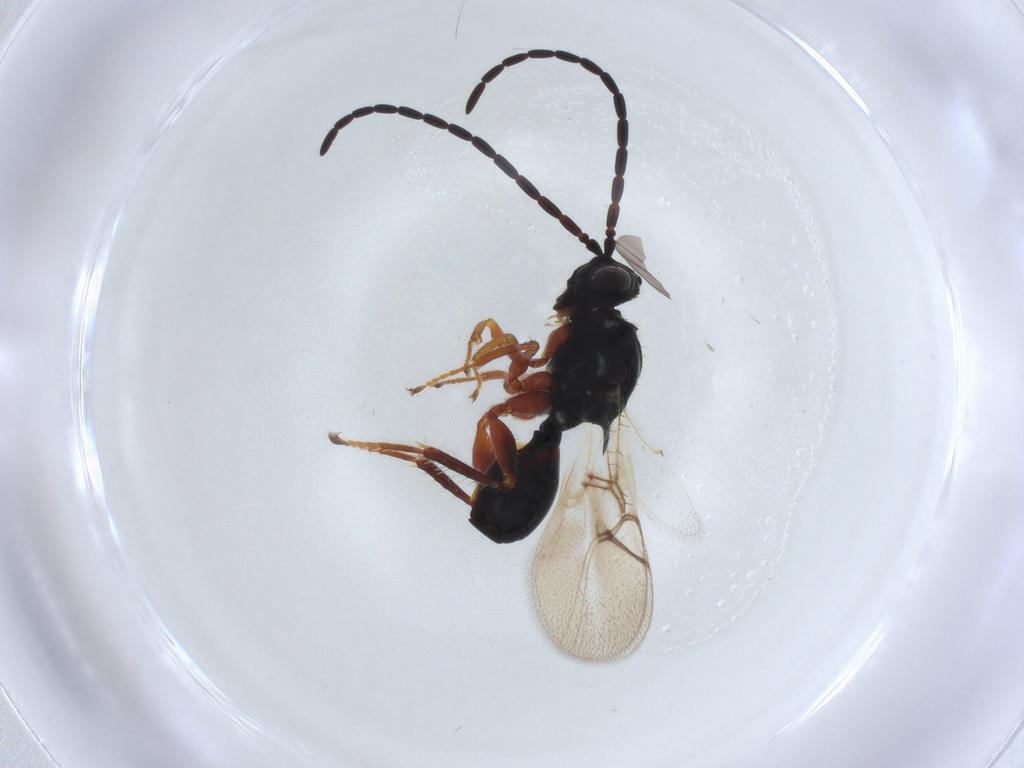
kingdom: Animalia
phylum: Arthropoda
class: Insecta
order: Hymenoptera
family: Figitidae
